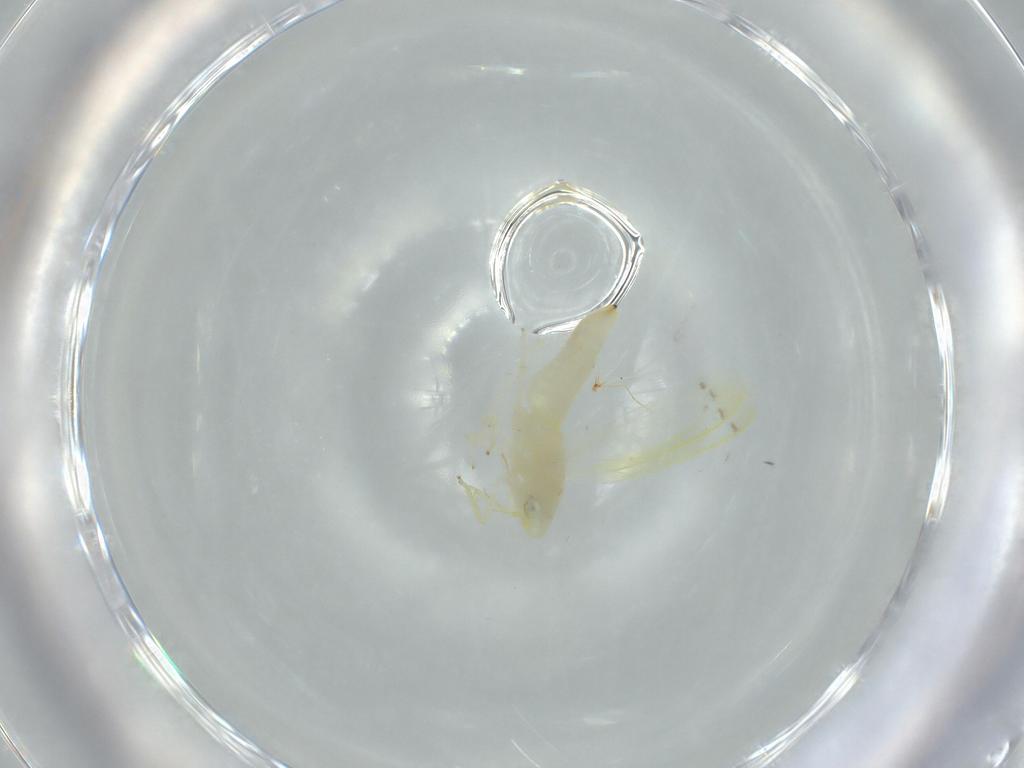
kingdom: Animalia
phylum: Arthropoda
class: Insecta
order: Hemiptera
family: Cicadellidae
